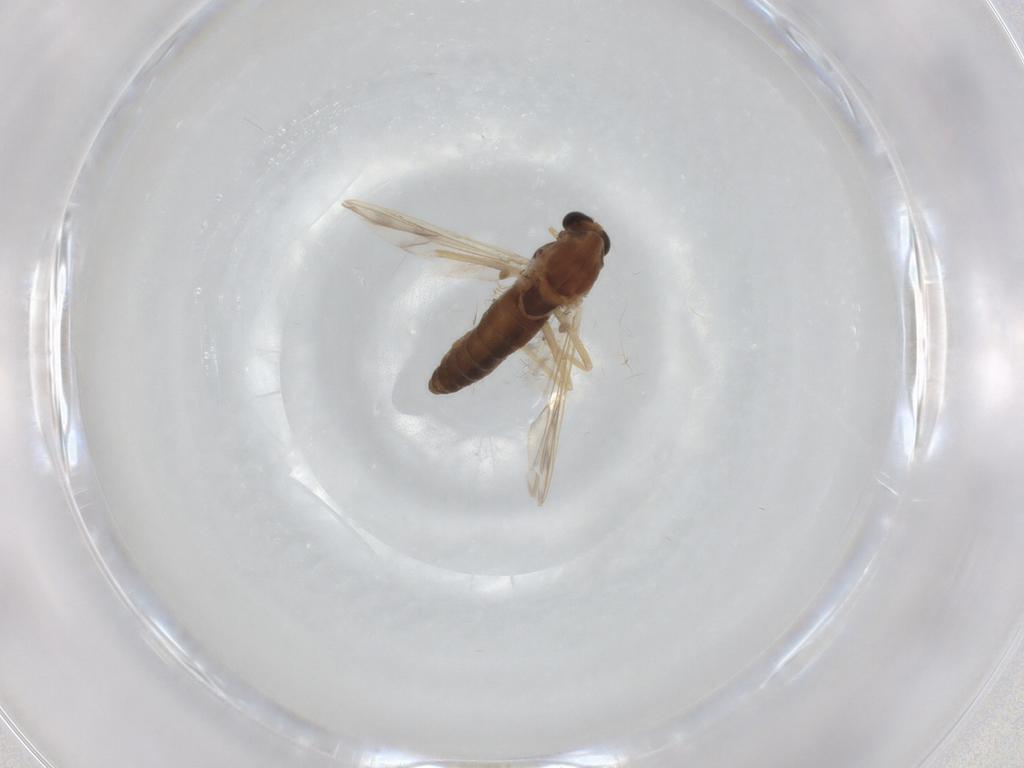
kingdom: Animalia
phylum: Arthropoda
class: Insecta
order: Diptera
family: Chironomidae
